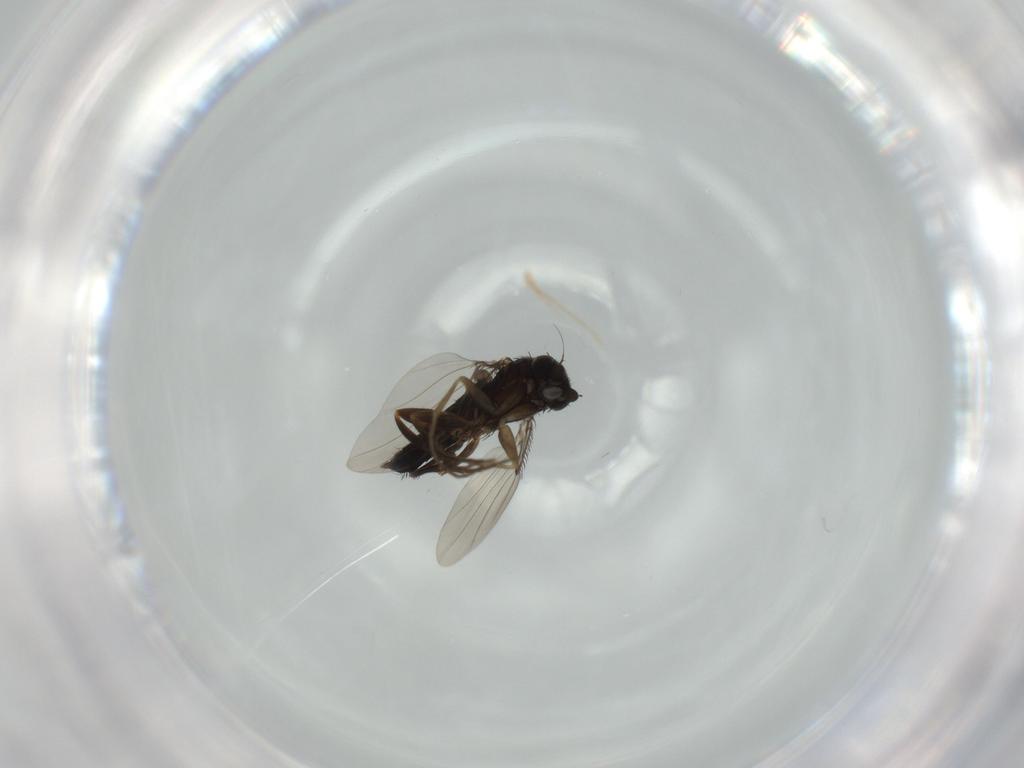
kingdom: Animalia
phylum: Arthropoda
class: Insecta
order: Diptera
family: Phoridae
